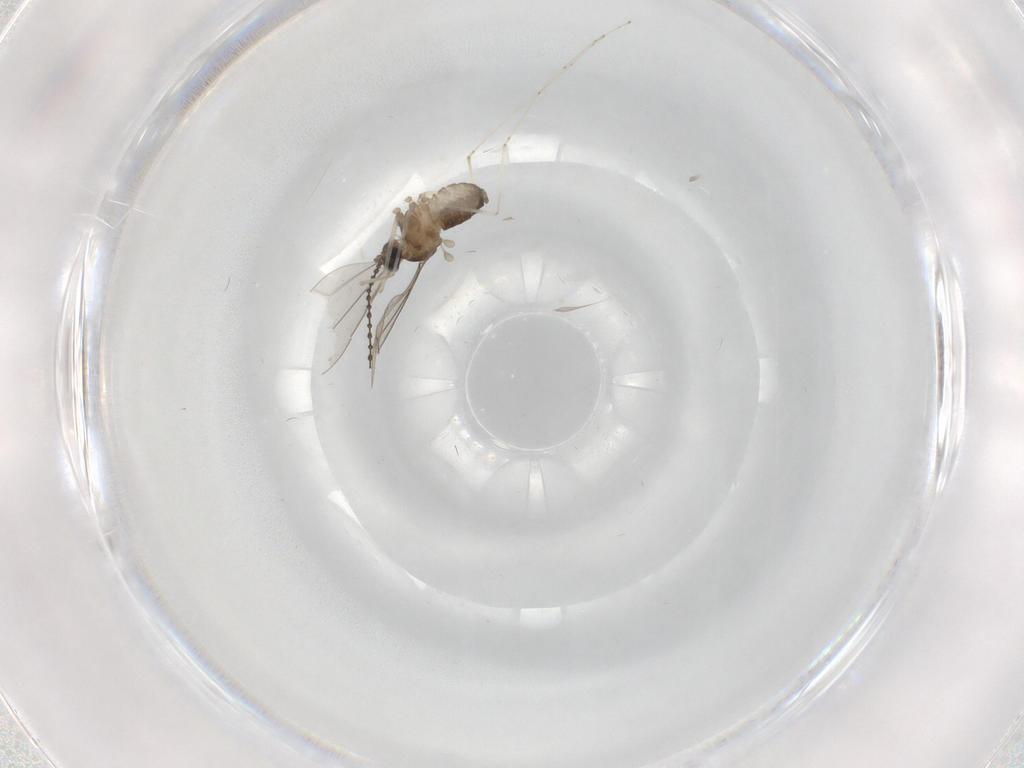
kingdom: Animalia
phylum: Arthropoda
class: Insecta
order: Diptera
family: Cecidomyiidae
